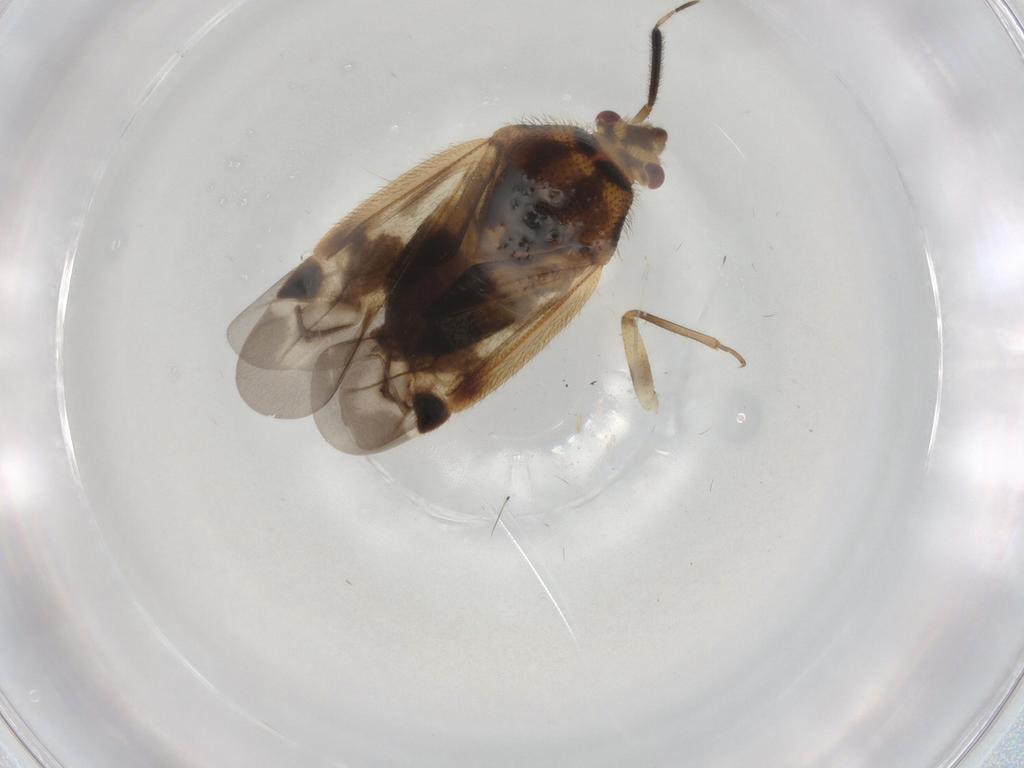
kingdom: Animalia
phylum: Arthropoda
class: Insecta
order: Hemiptera
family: Miridae
